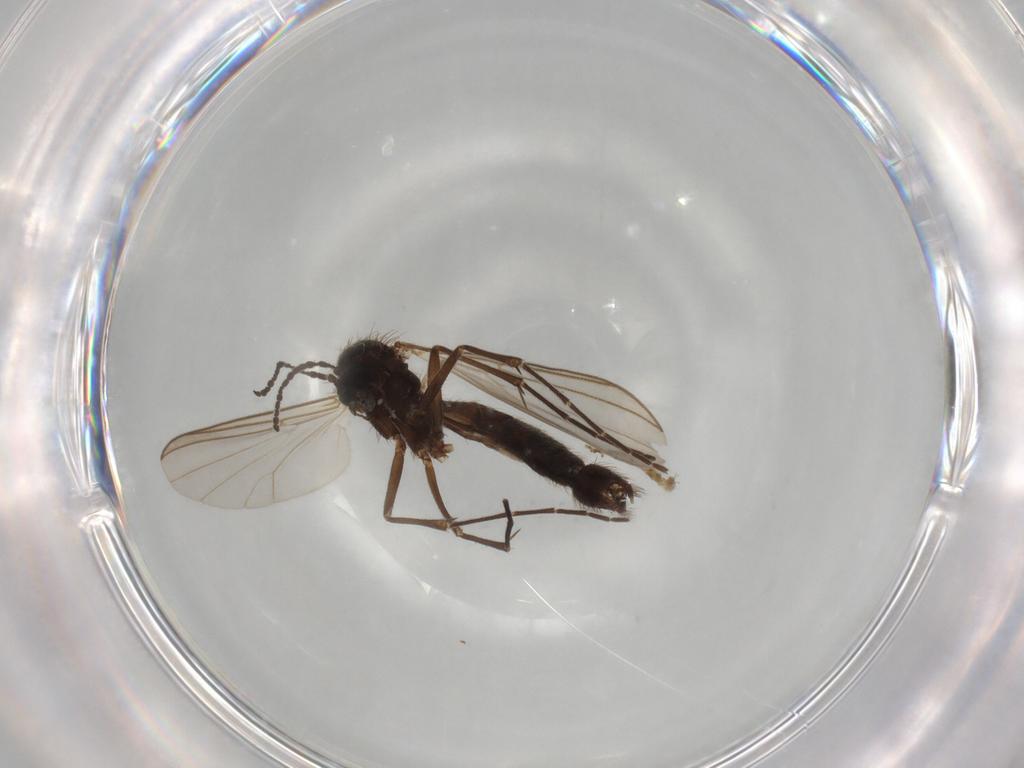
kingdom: Animalia
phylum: Arthropoda
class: Insecta
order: Diptera
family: Mycetophilidae
